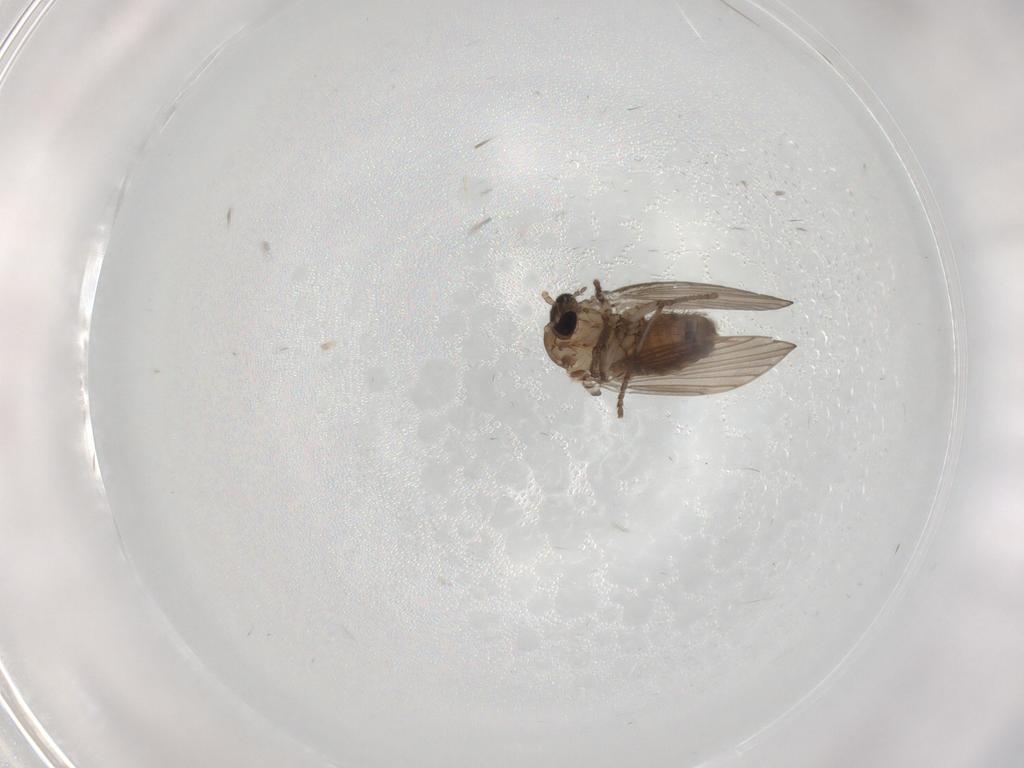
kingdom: Animalia
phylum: Arthropoda
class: Insecta
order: Diptera
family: Phoridae
